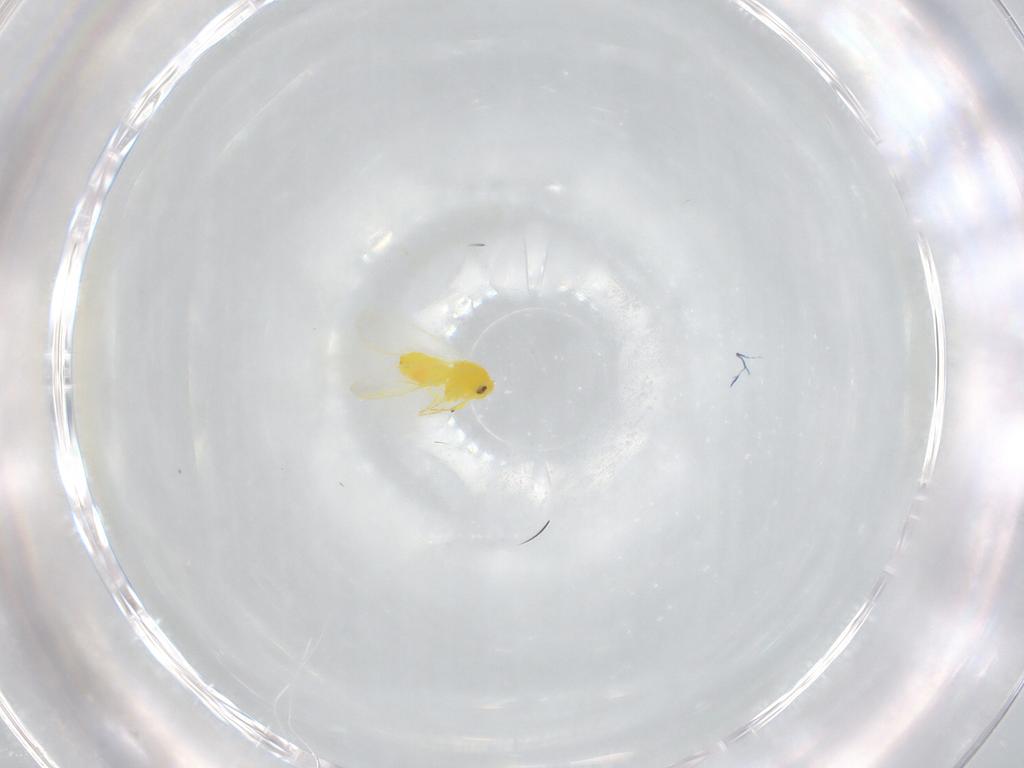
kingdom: Animalia
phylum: Arthropoda
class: Insecta
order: Hemiptera
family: Aleyrodidae
